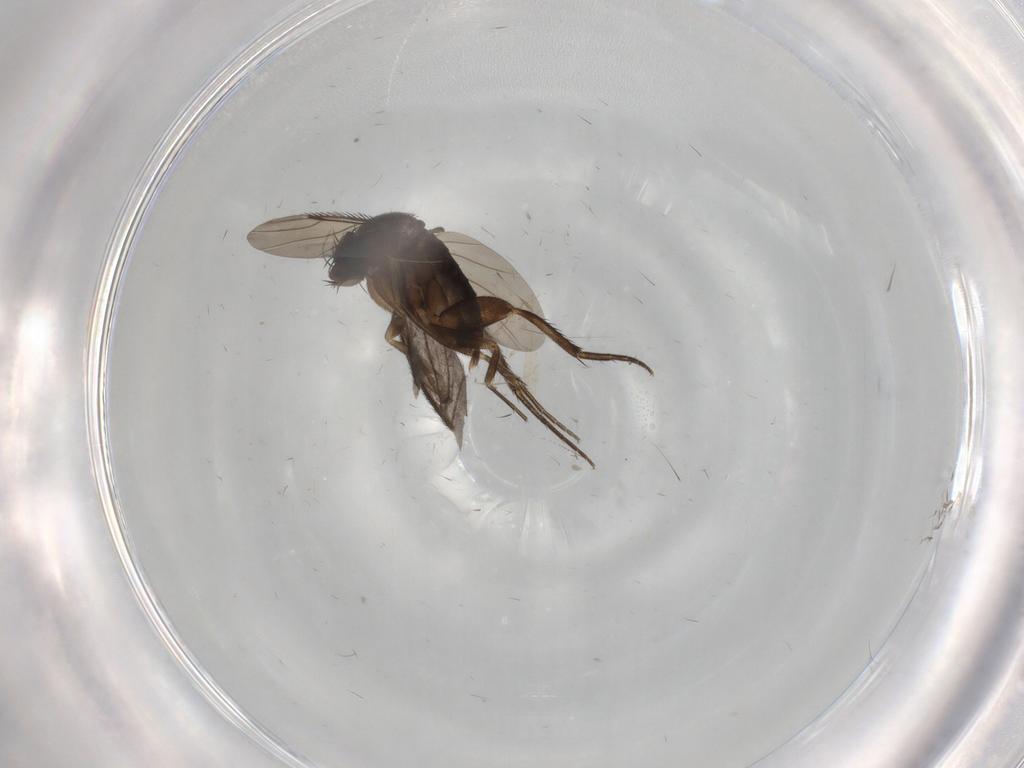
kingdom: Animalia
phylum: Arthropoda
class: Insecta
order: Diptera
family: Phoridae
